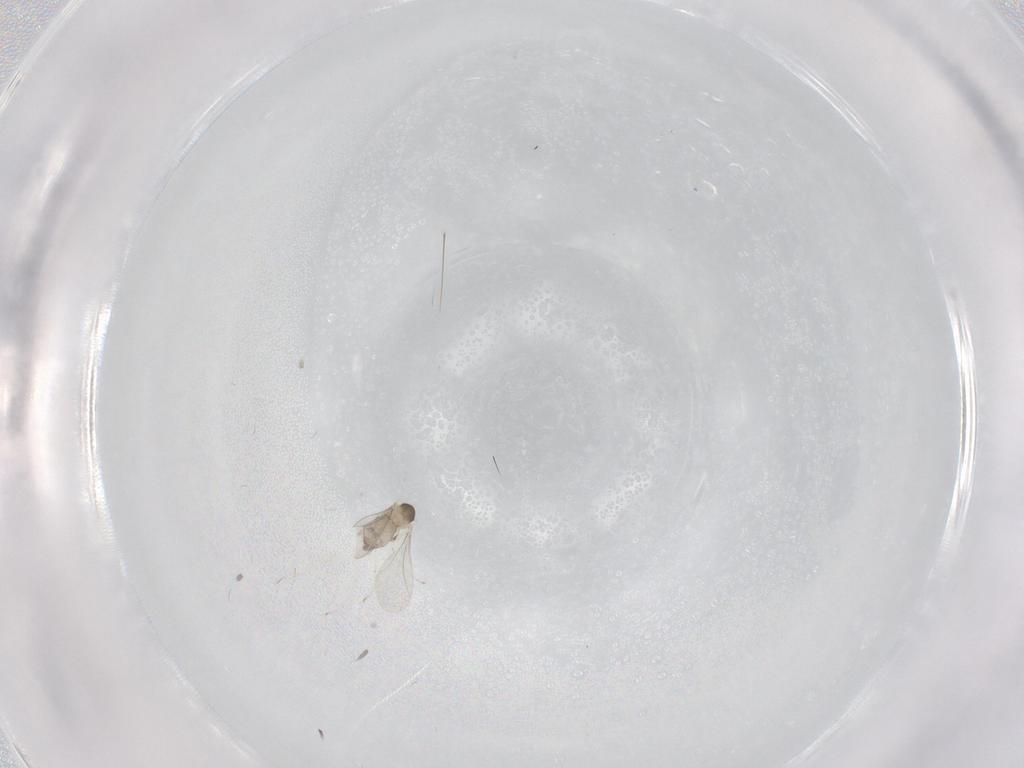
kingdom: Animalia
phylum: Arthropoda
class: Insecta
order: Diptera
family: Cecidomyiidae
